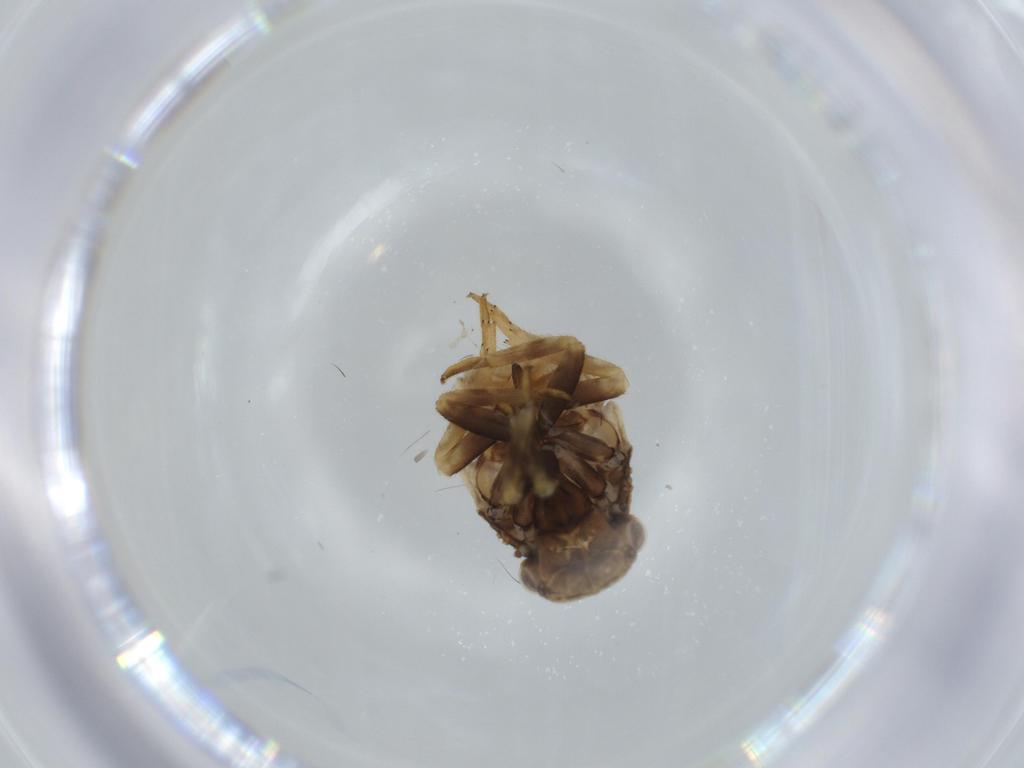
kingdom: Animalia
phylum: Arthropoda
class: Insecta
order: Hemiptera
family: Fulgoroidea_incertae_sedis
